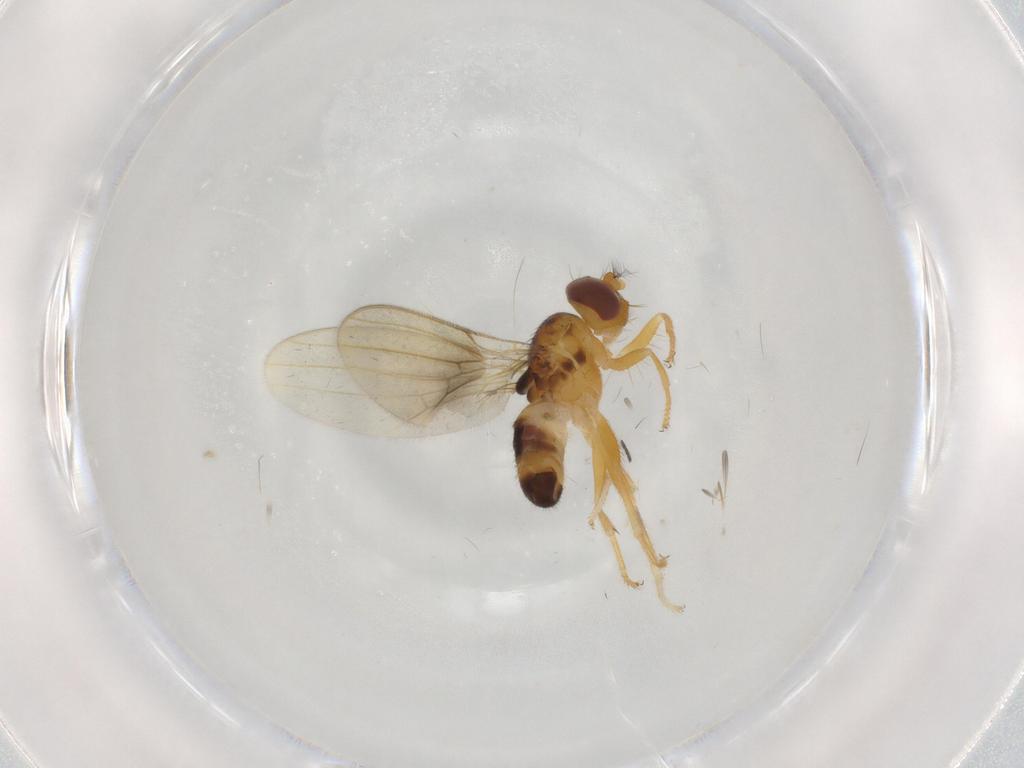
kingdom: Animalia
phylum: Arthropoda
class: Insecta
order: Diptera
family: Periscelididae
